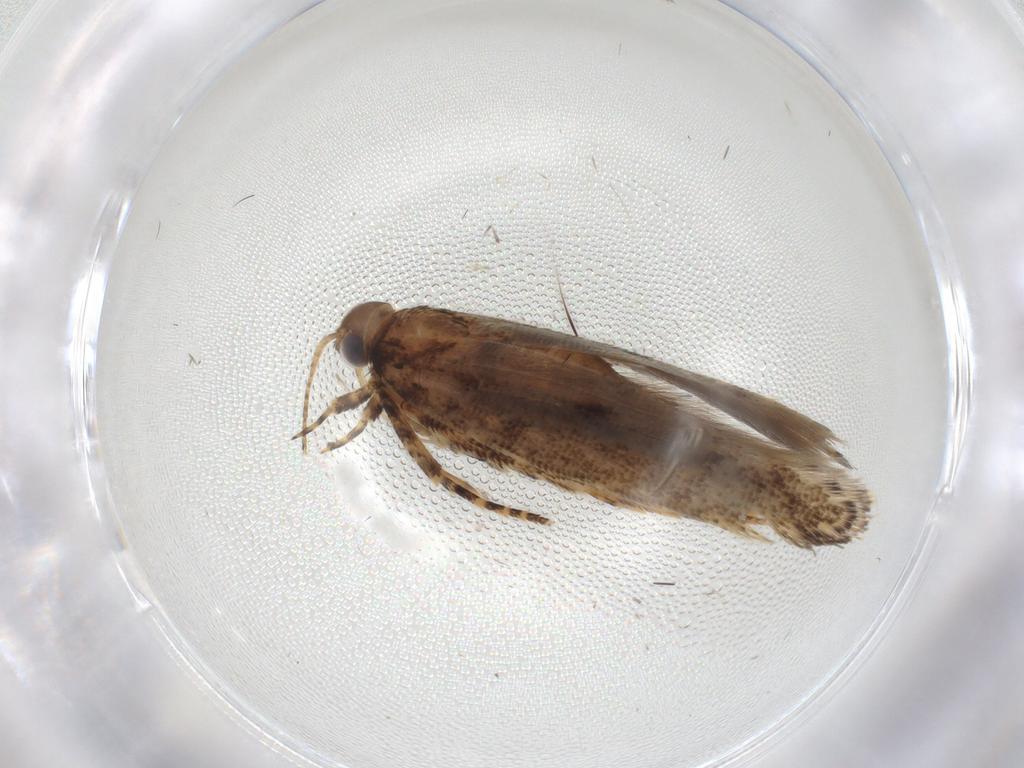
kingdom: Animalia
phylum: Arthropoda
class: Insecta
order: Lepidoptera
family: Gelechiidae
